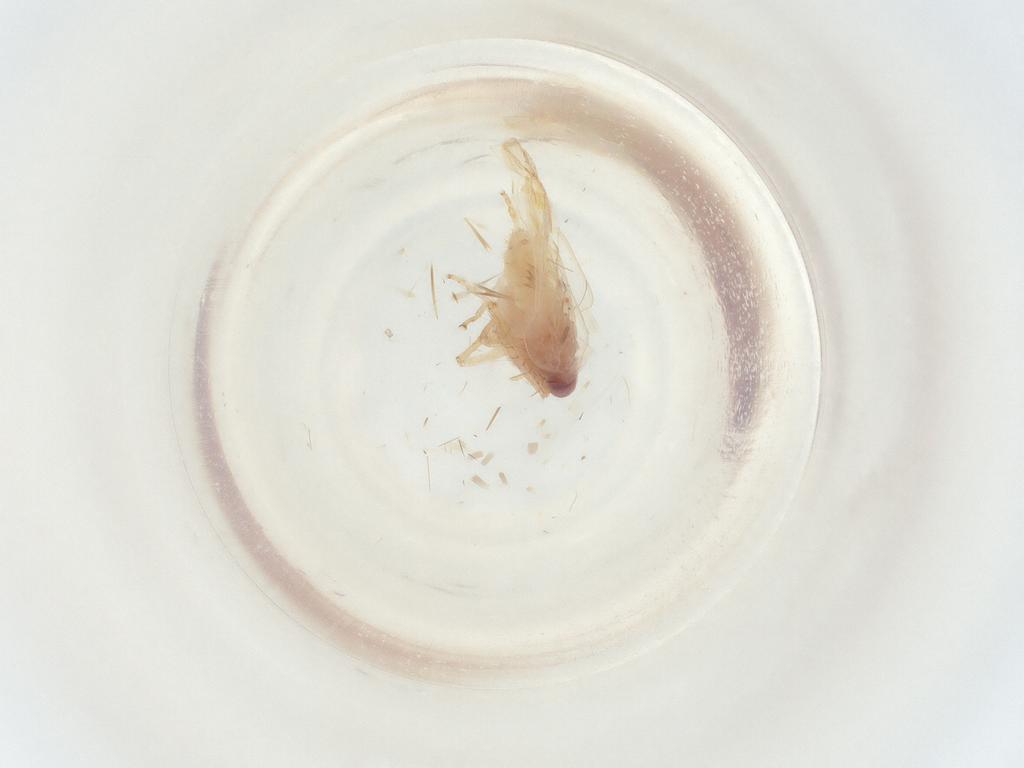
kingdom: Animalia
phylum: Arthropoda
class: Insecta
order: Hemiptera
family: Cicadellidae
